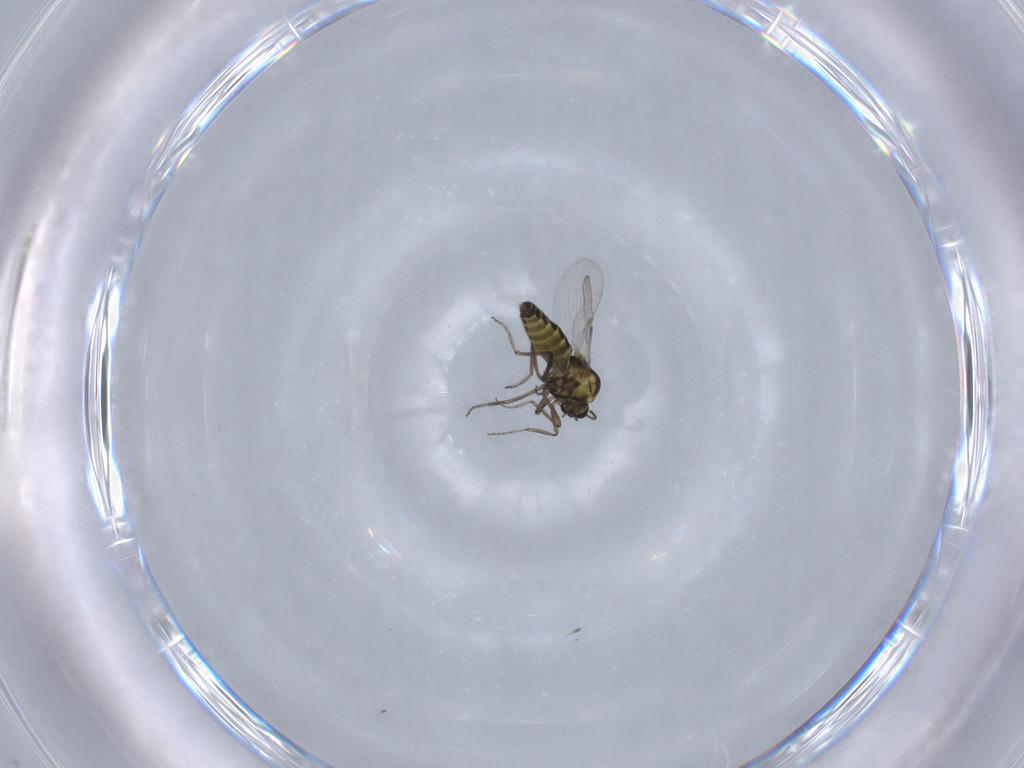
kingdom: Animalia
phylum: Arthropoda
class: Insecta
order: Diptera
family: Ceratopogonidae
